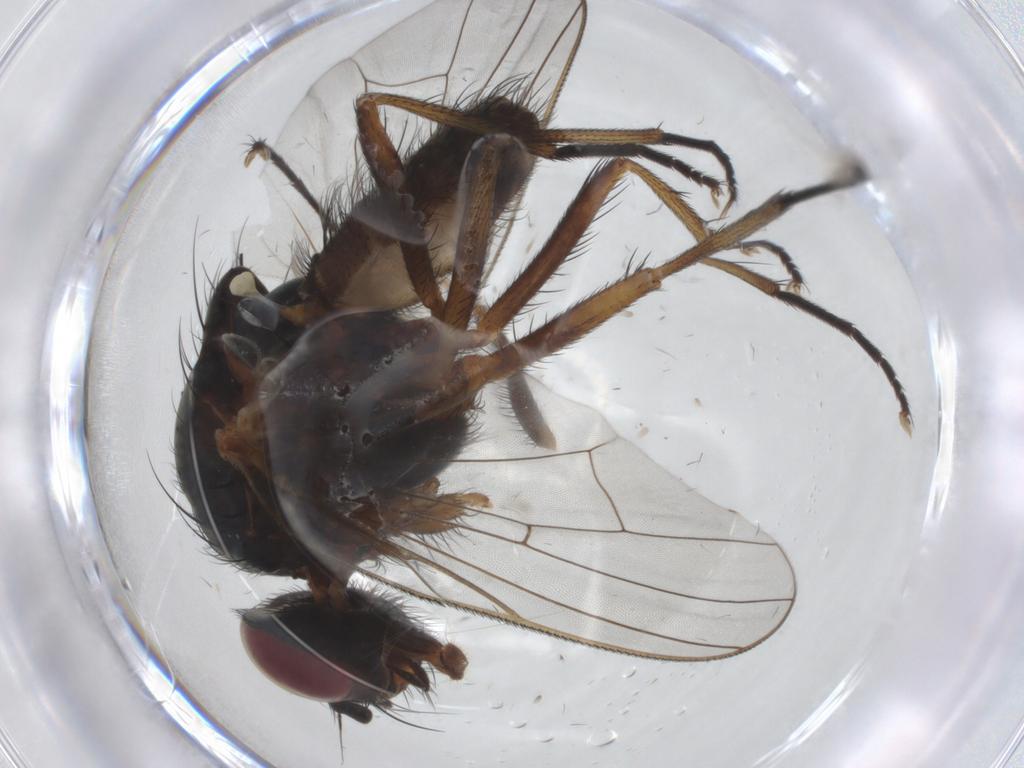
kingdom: Animalia
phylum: Arthropoda
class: Insecta
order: Diptera
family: Anthomyiidae
